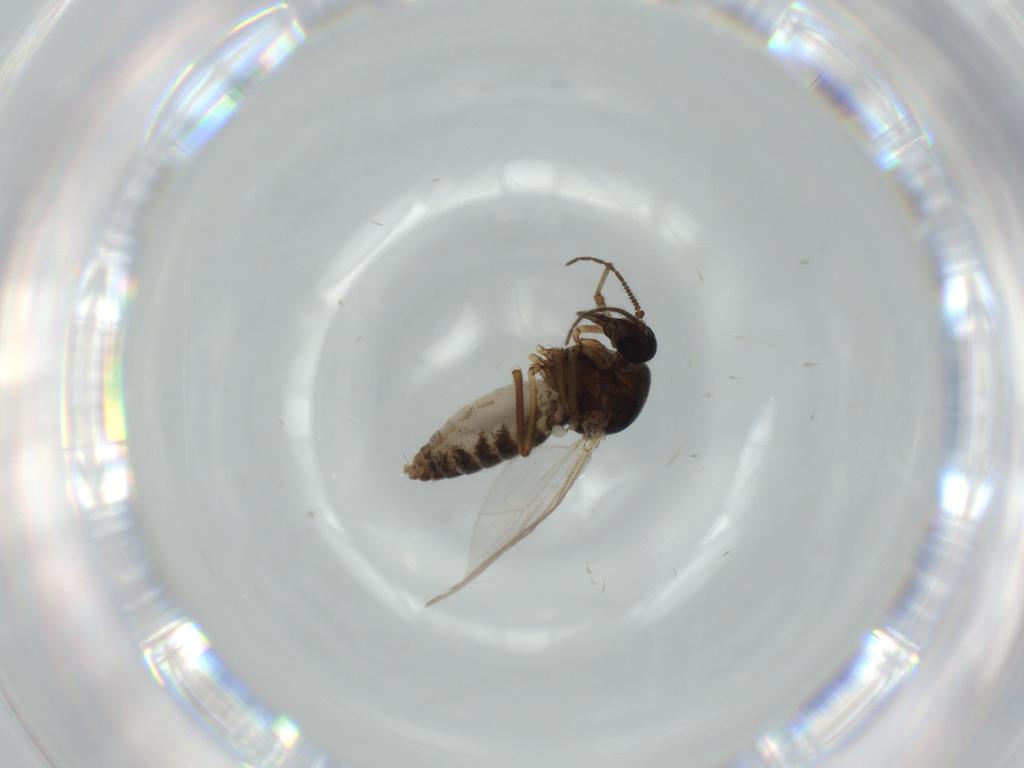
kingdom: Animalia
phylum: Arthropoda
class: Insecta
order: Diptera
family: Ceratopogonidae
